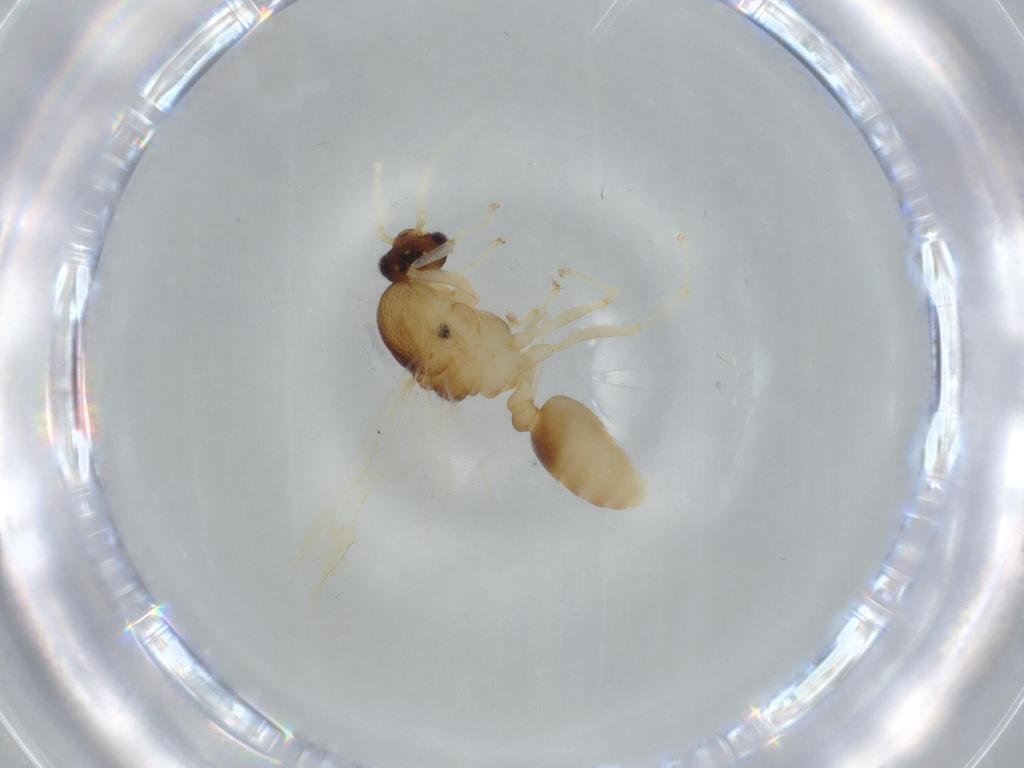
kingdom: Animalia
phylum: Arthropoda
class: Insecta
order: Hymenoptera
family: Formicidae
